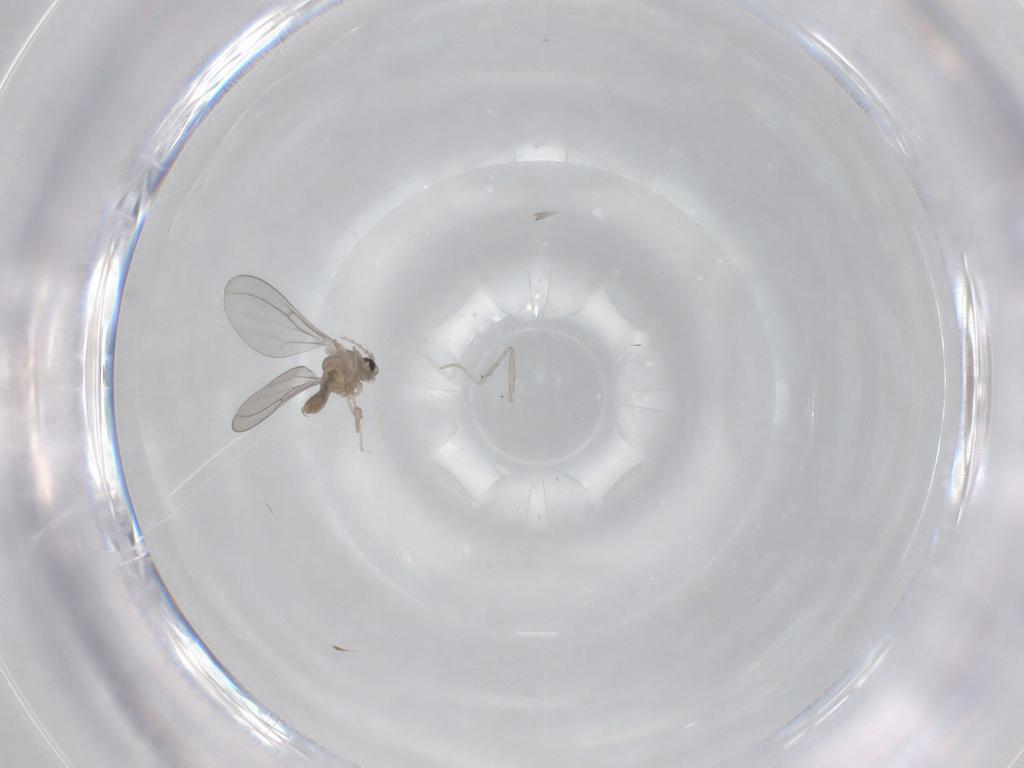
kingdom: Animalia
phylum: Arthropoda
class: Insecta
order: Diptera
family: Cecidomyiidae
